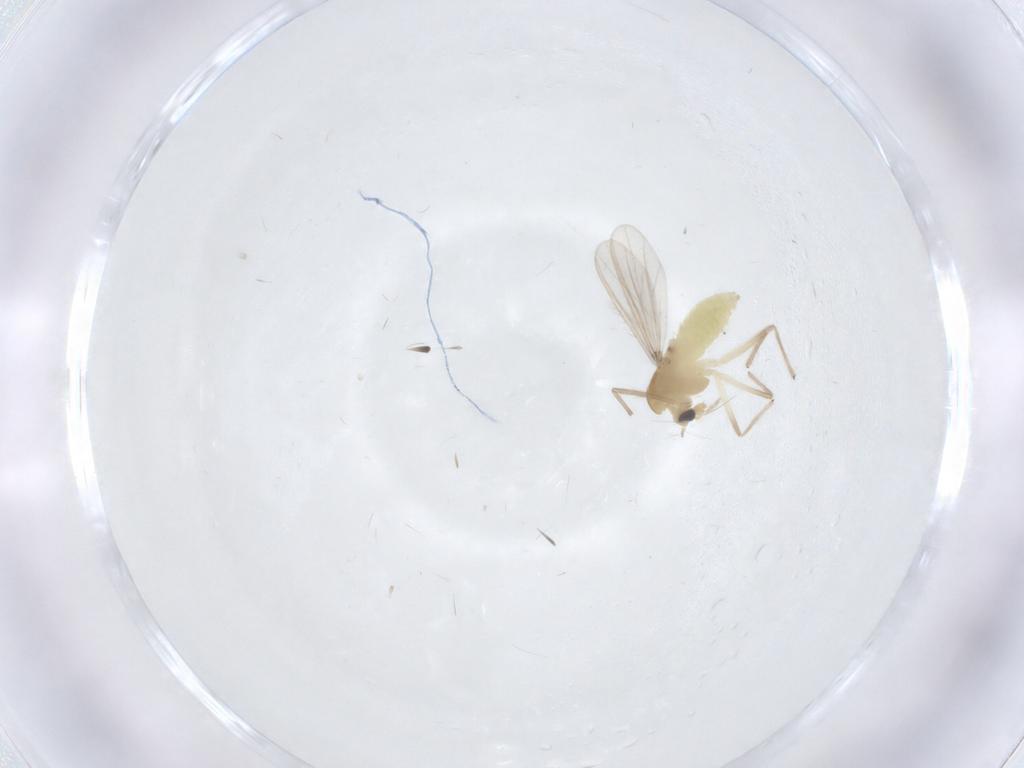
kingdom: Animalia
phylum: Arthropoda
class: Insecta
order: Diptera
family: Chironomidae
